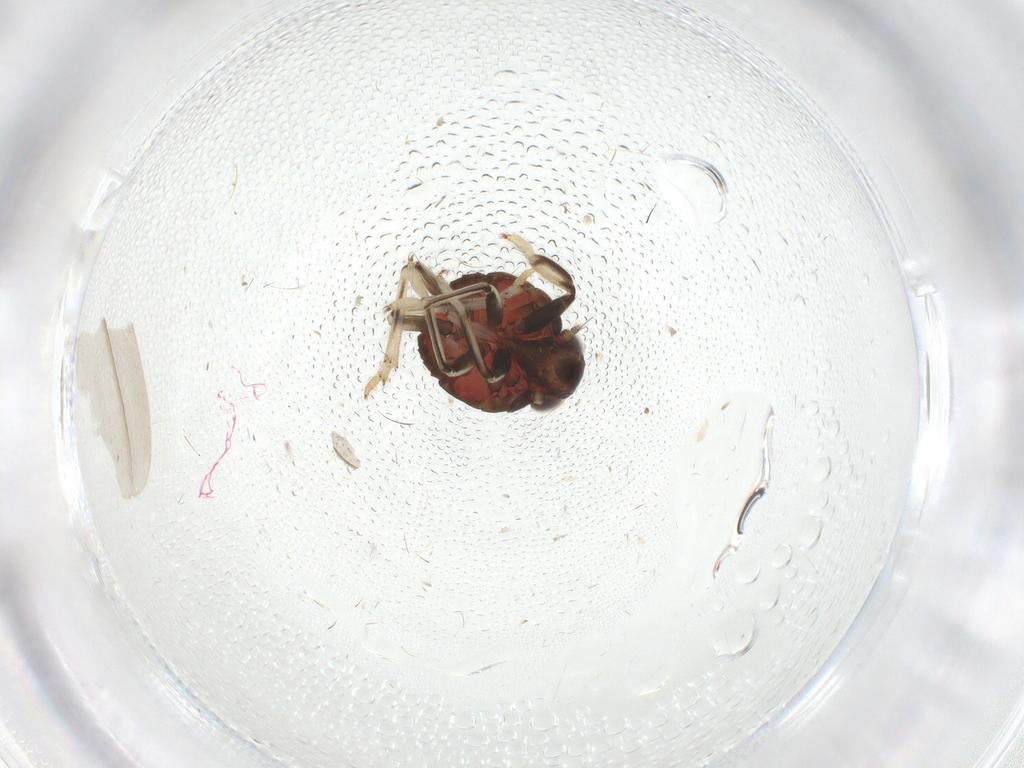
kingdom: Animalia
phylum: Arthropoda
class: Insecta
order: Hemiptera
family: Issidae
